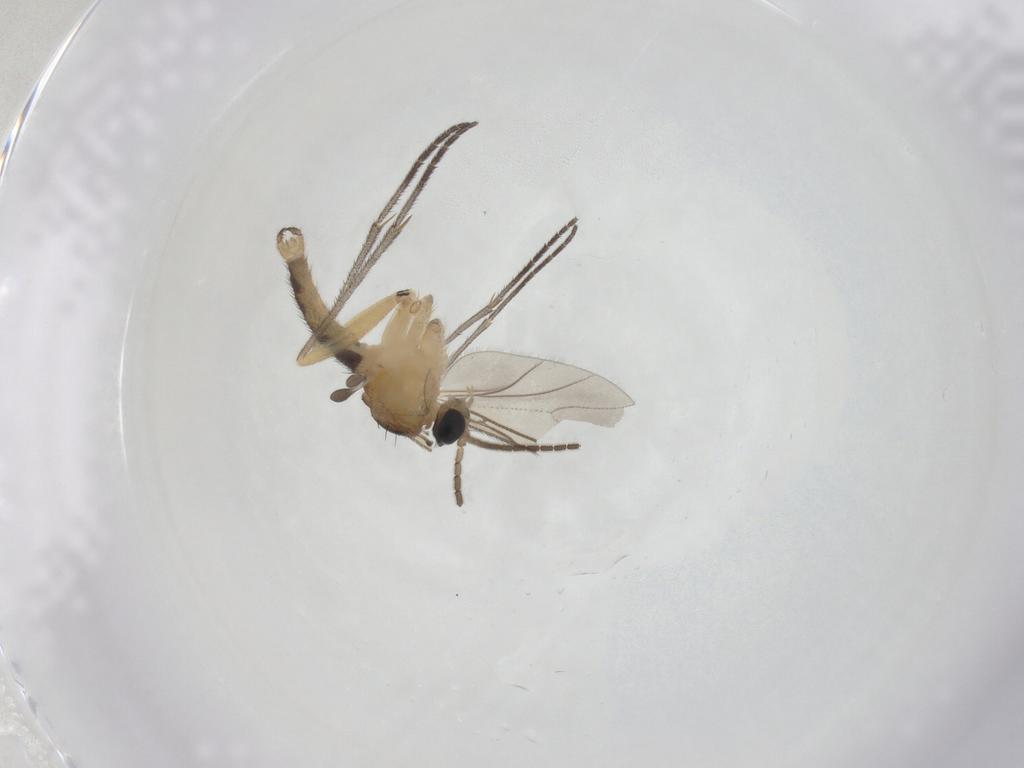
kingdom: Animalia
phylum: Arthropoda
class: Insecta
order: Diptera
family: Sciaridae
